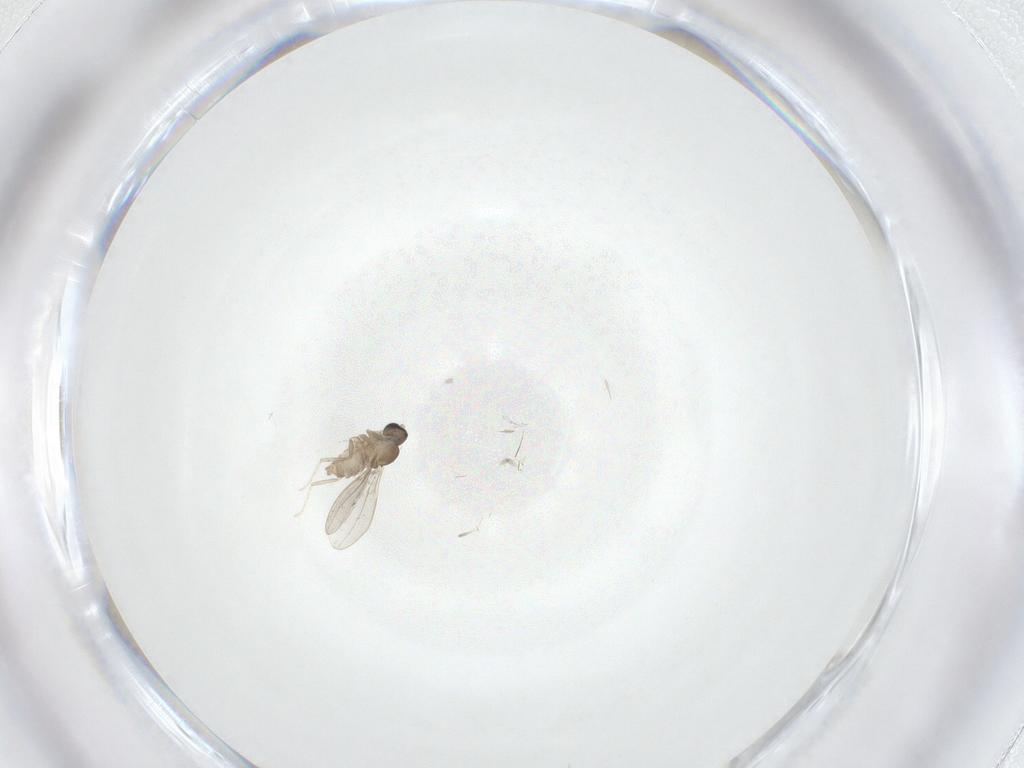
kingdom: Animalia
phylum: Arthropoda
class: Insecta
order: Diptera
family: Cecidomyiidae
